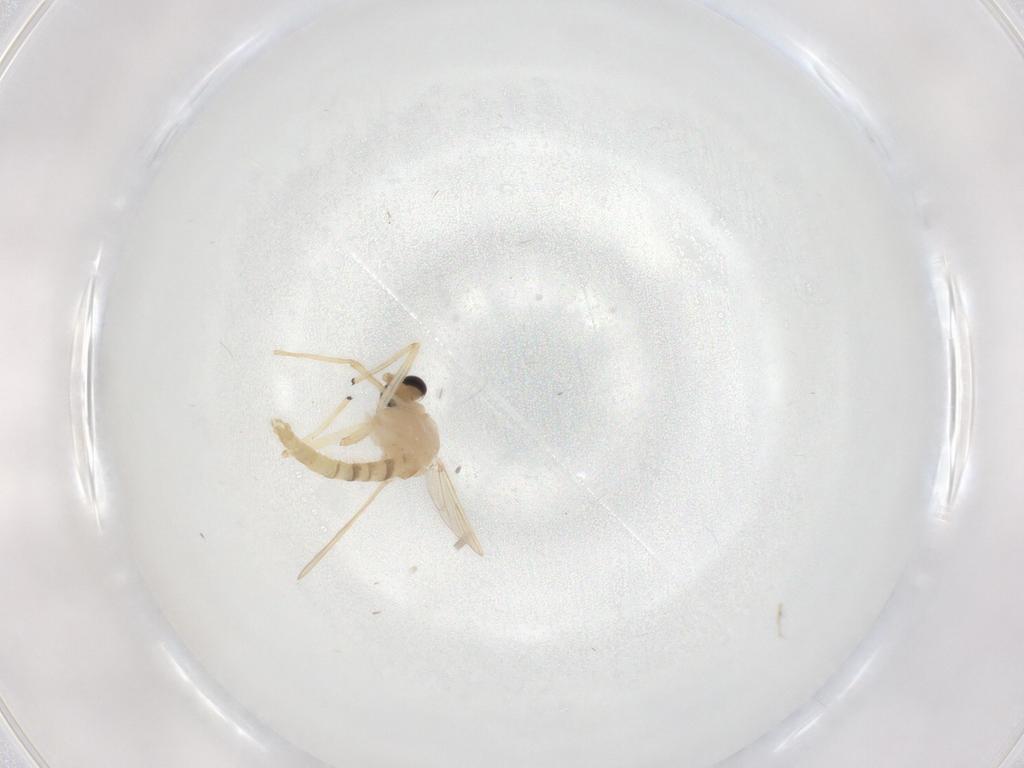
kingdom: Animalia
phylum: Arthropoda
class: Insecta
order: Diptera
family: Chironomidae
